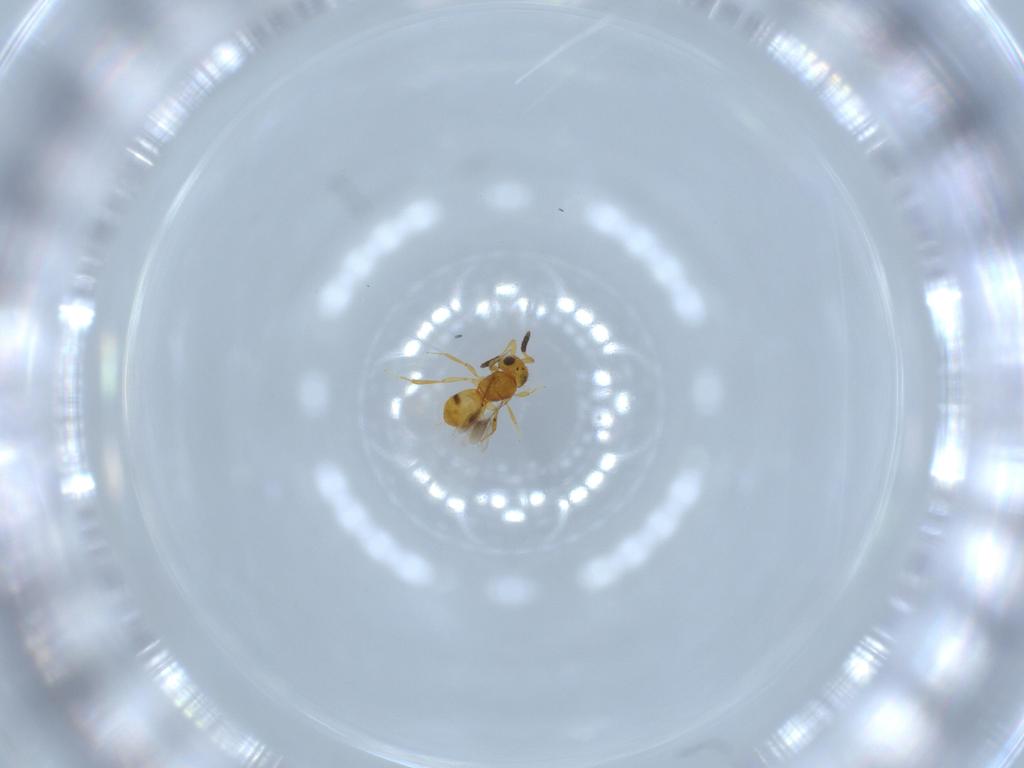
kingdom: Animalia
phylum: Arthropoda
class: Insecta
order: Hymenoptera
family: Scelionidae
